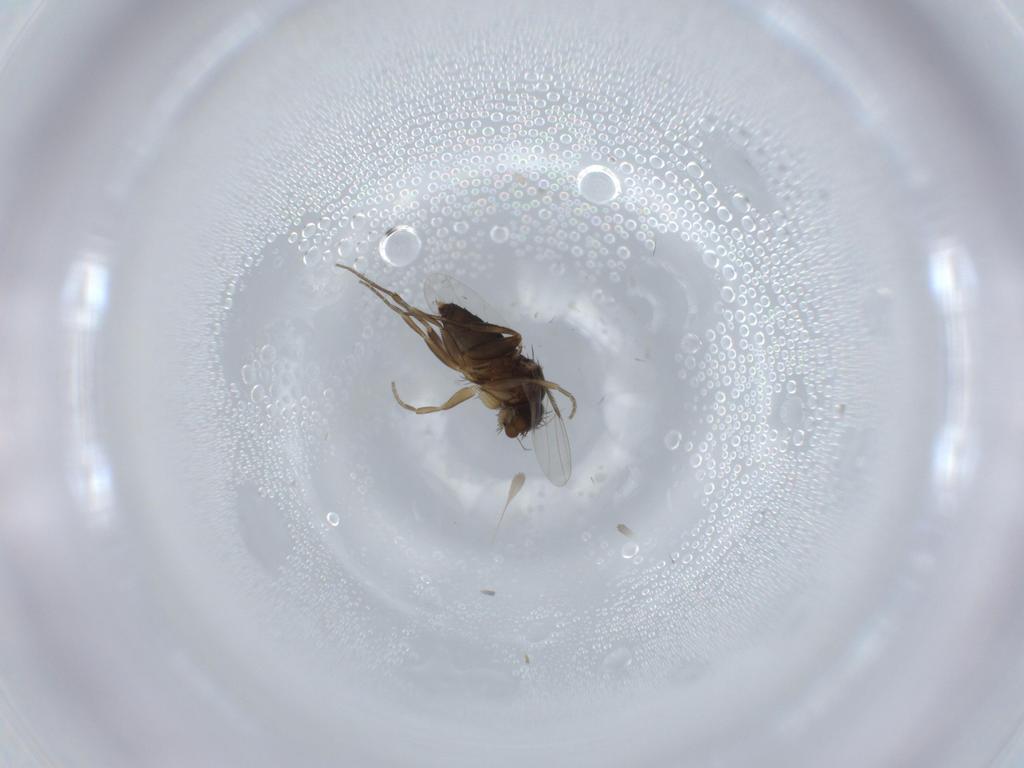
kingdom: Animalia
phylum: Arthropoda
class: Insecta
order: Diptera
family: Phoridae
